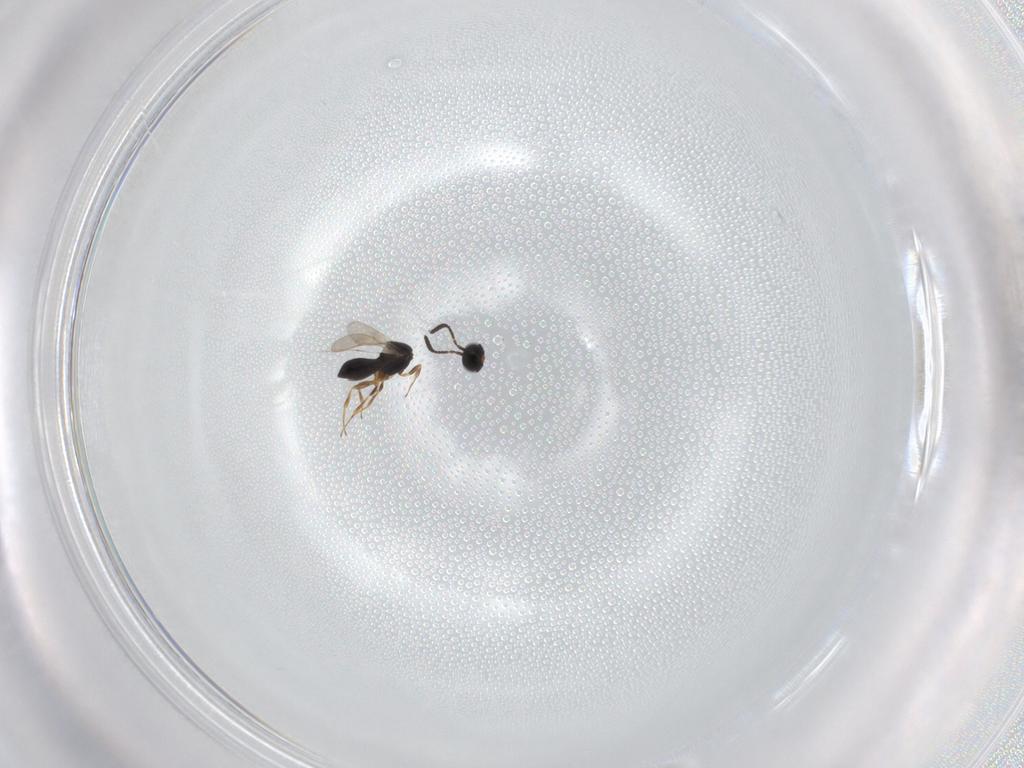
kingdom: Animalia
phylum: Arthropoda
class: Insecta
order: Hymenoptera
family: Scelionidae
